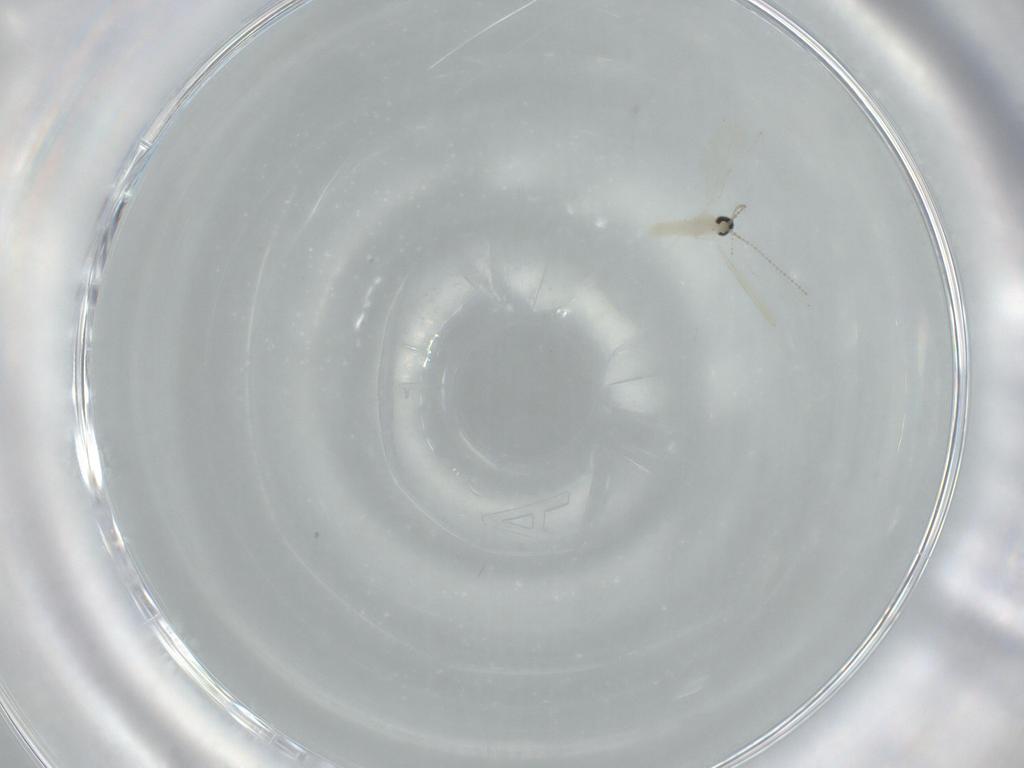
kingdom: Animalia
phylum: Arthropoda
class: Insecta
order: Diptera
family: Cecidomyiidae
